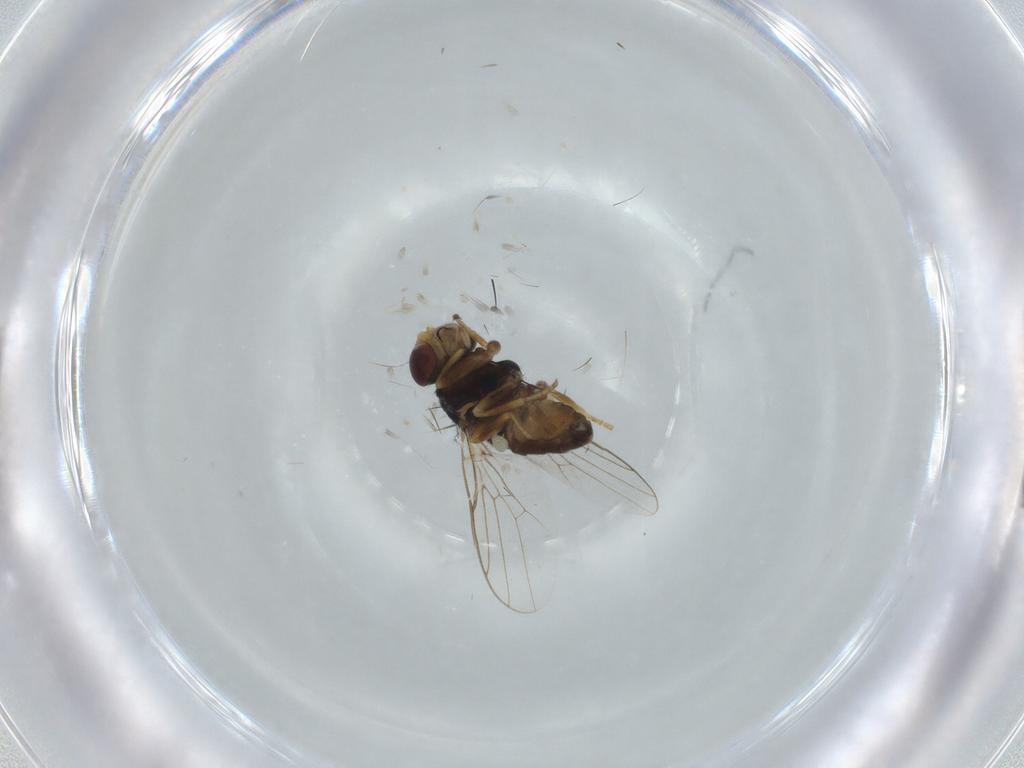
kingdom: Animalia
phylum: Arthropoda
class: Insecta
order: Diptera
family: Chloropidae
